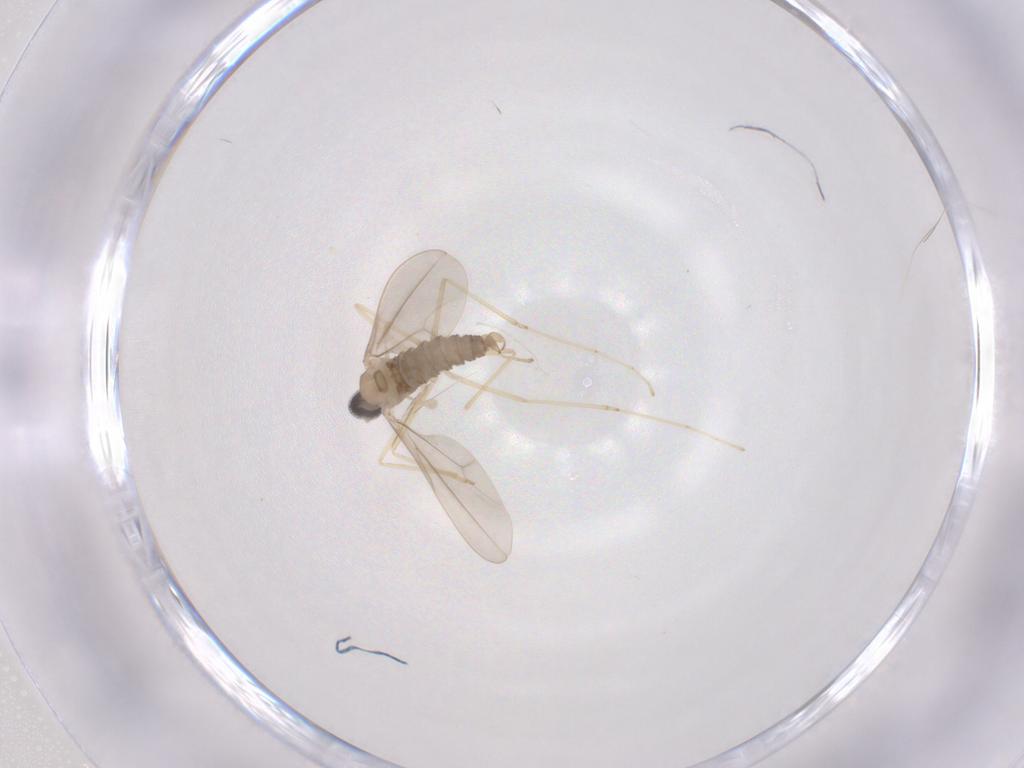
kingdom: Animalia
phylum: Arthropoda
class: Insecta
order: Diptera
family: Cecidomyiidae
